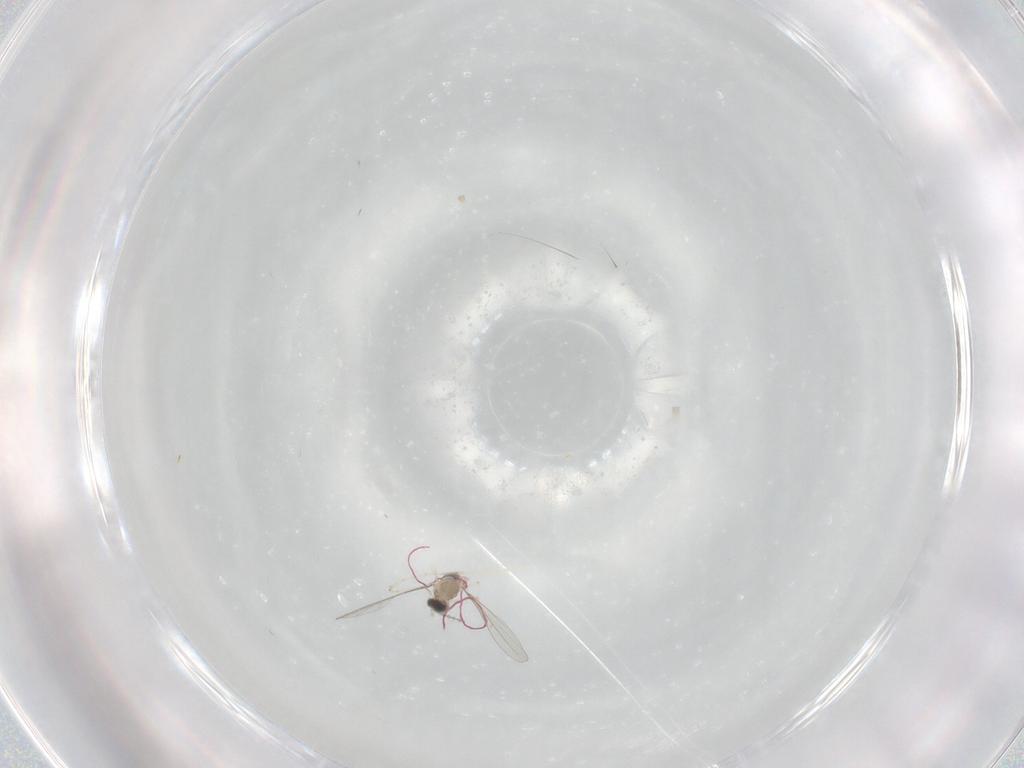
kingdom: Animalia
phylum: Arthropoda
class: Insecta
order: Diptera
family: Cecidomyiidae
